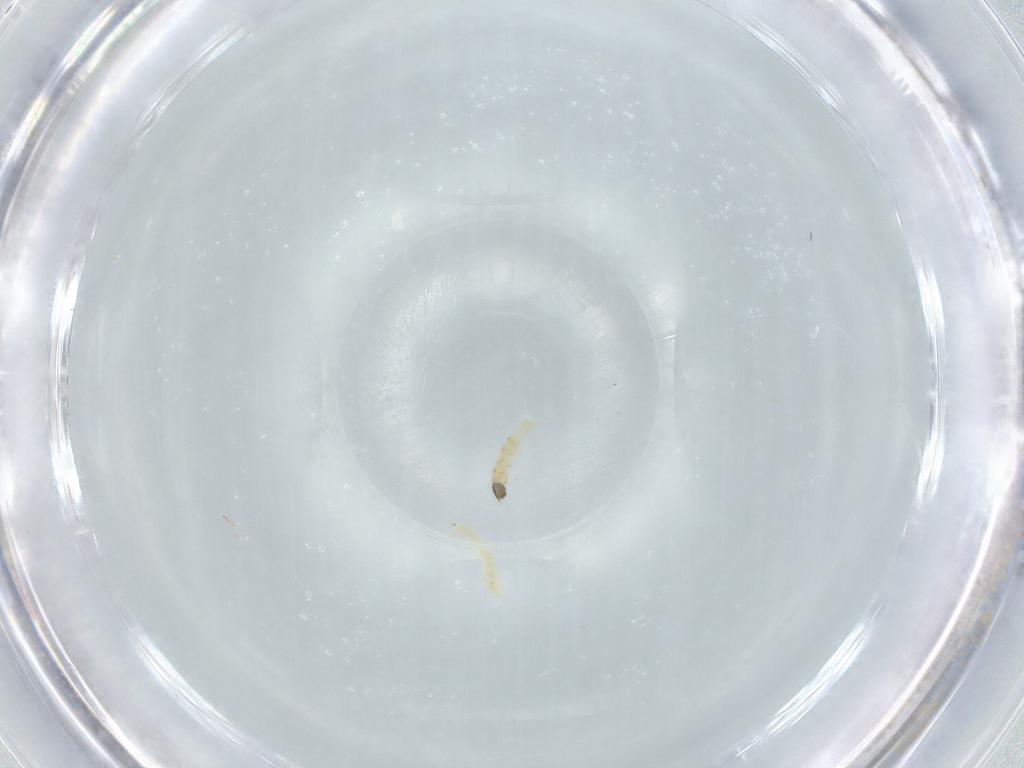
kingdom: Animalia
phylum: Arthropoda
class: Insecta
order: Diptera
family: Chironomidae
